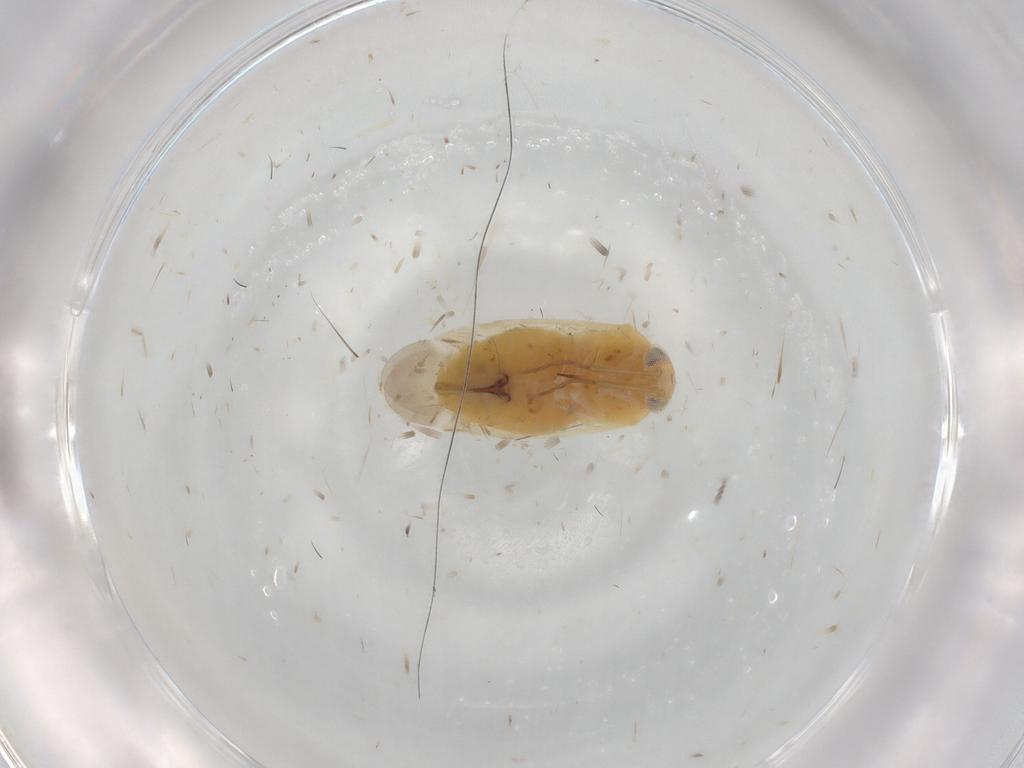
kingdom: Animalia
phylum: Arthropoda
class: Insecta
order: Hemiptera
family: Miridae
